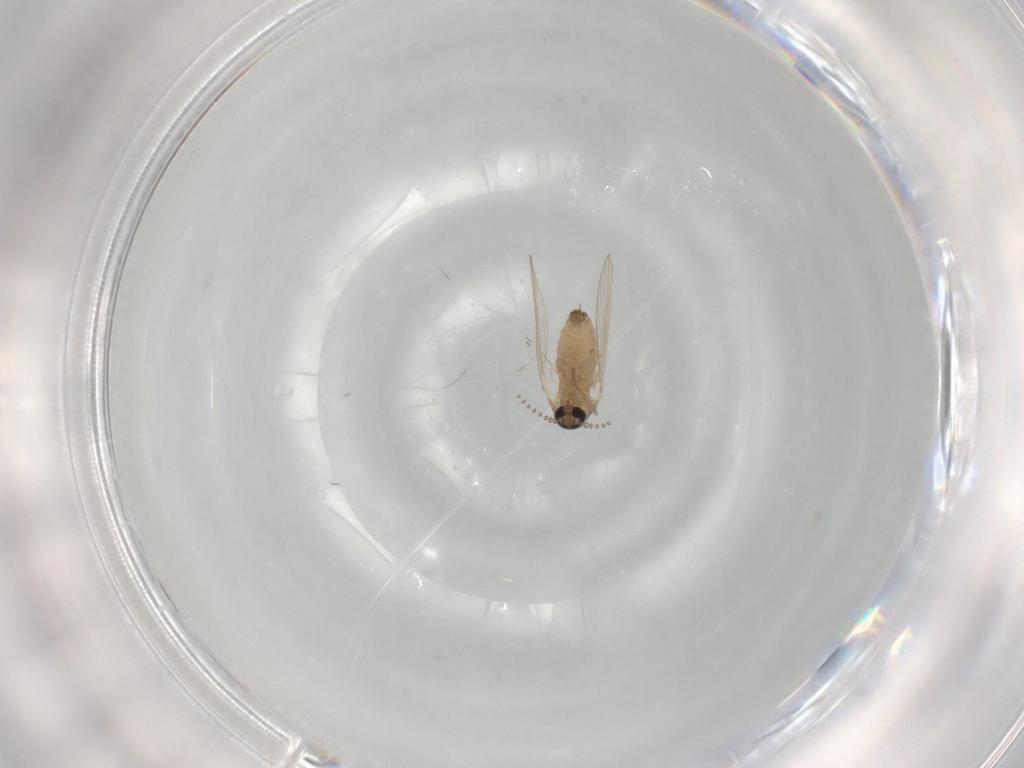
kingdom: Animalia
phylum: Arthropoda
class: Insecta
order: Diptera
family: Psychodidae
